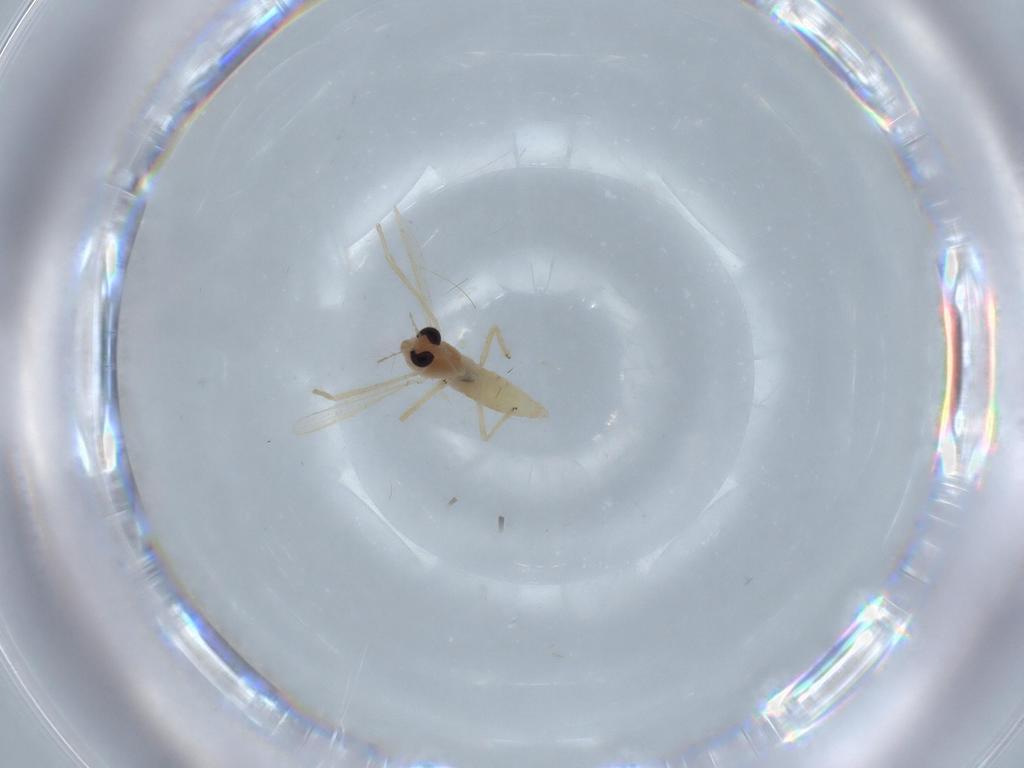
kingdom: Animalia
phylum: Arthropoda
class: Insecta
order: Diptera
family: Chironomidae
